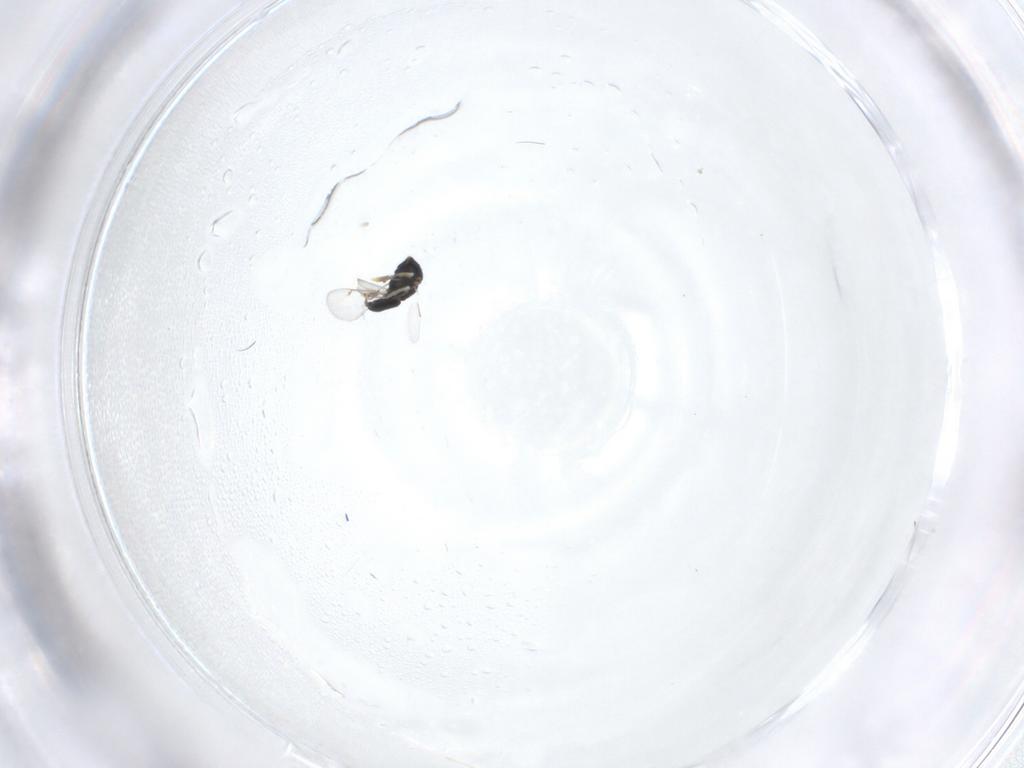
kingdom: Animalia
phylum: Arthropoda
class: Insecta
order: Hymenoptera
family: Eulophidae
